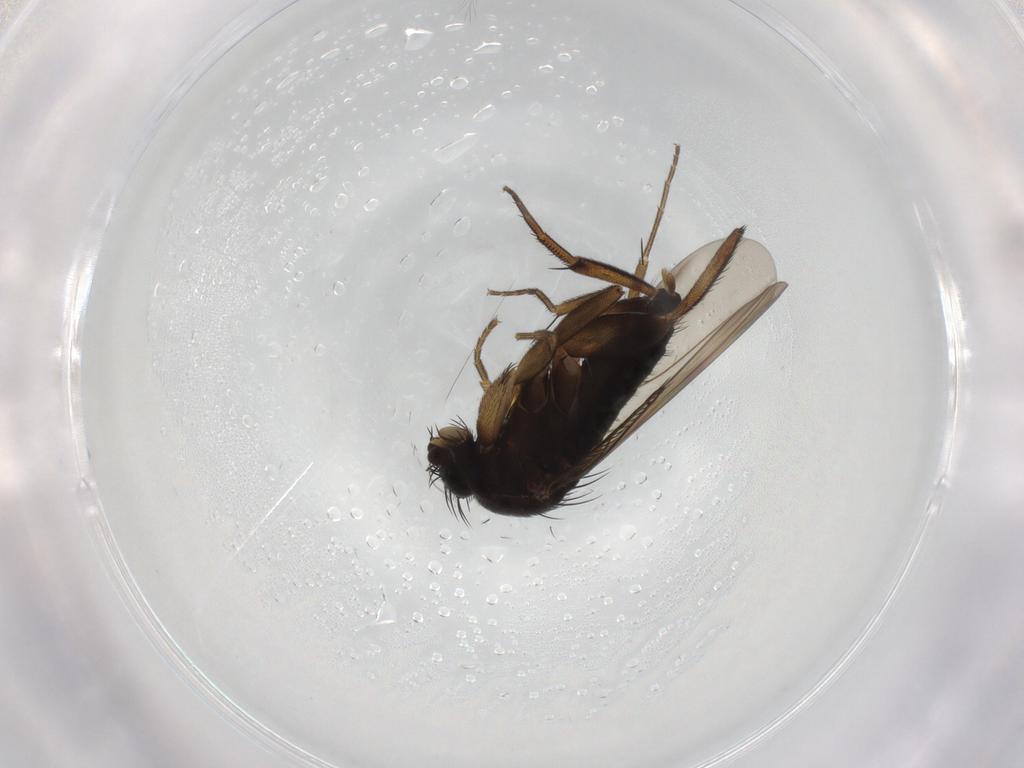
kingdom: Animalia
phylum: Arthropoda
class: Insecta
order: Diptera
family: Phoridae
